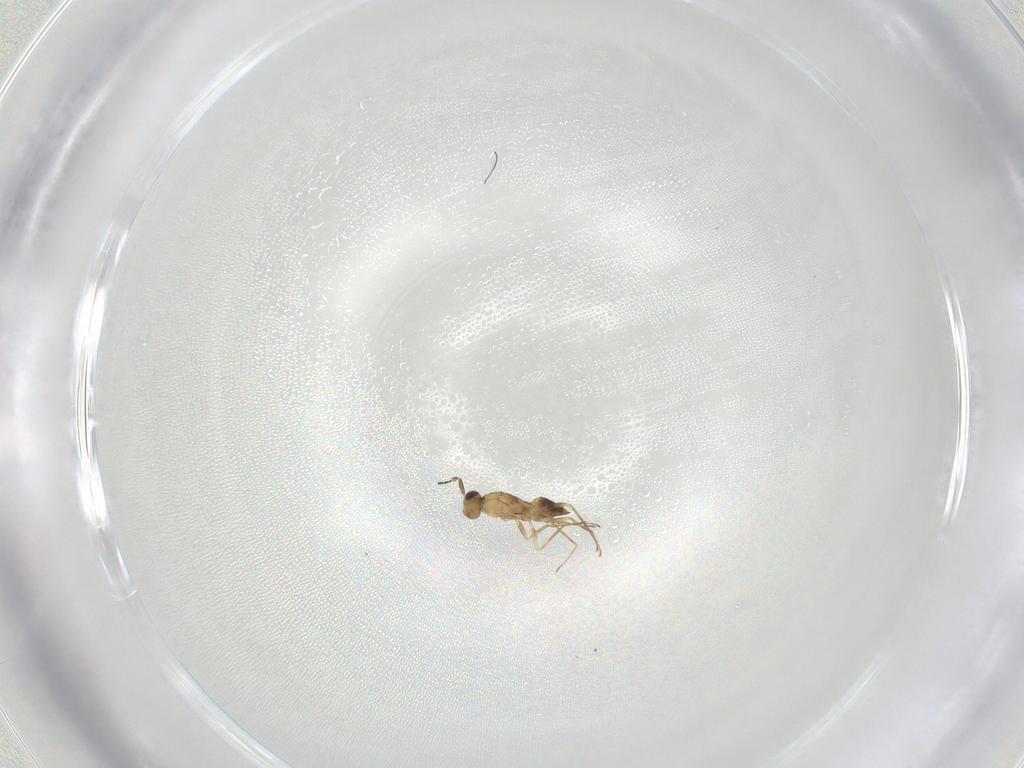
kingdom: Animalia
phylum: Arthropoda
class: Insecta
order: Hymenoptera
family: Mymaridae
